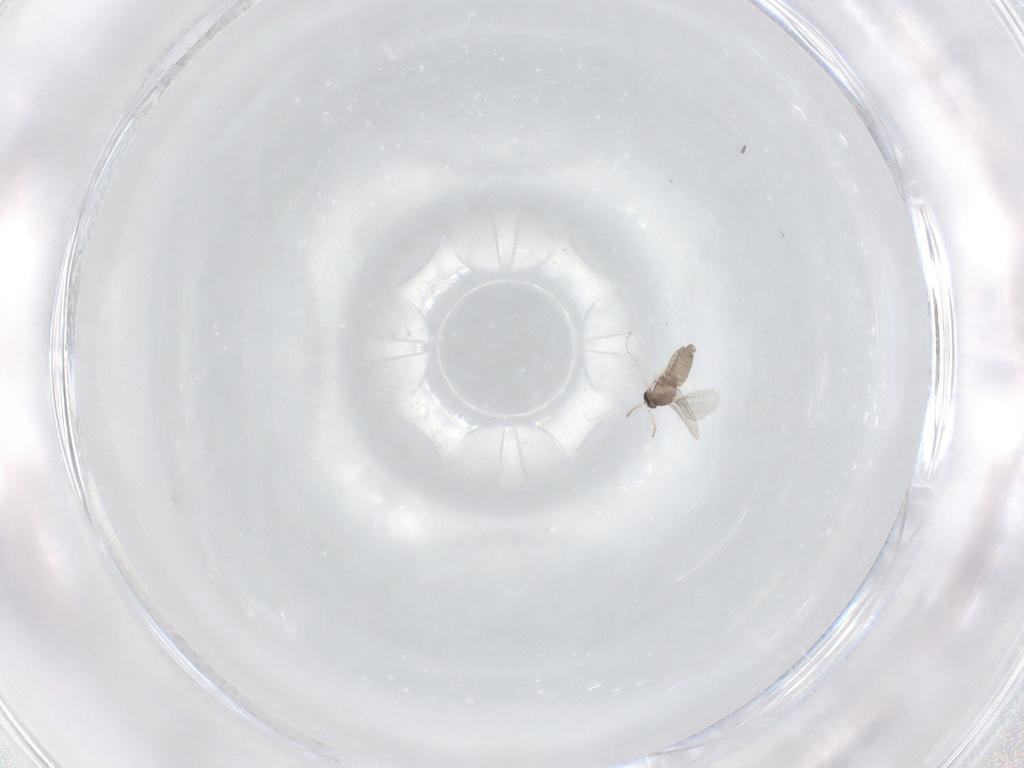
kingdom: Animalia
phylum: Arthropoda
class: Insecta
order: Diptera
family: Cecidomyiidae
